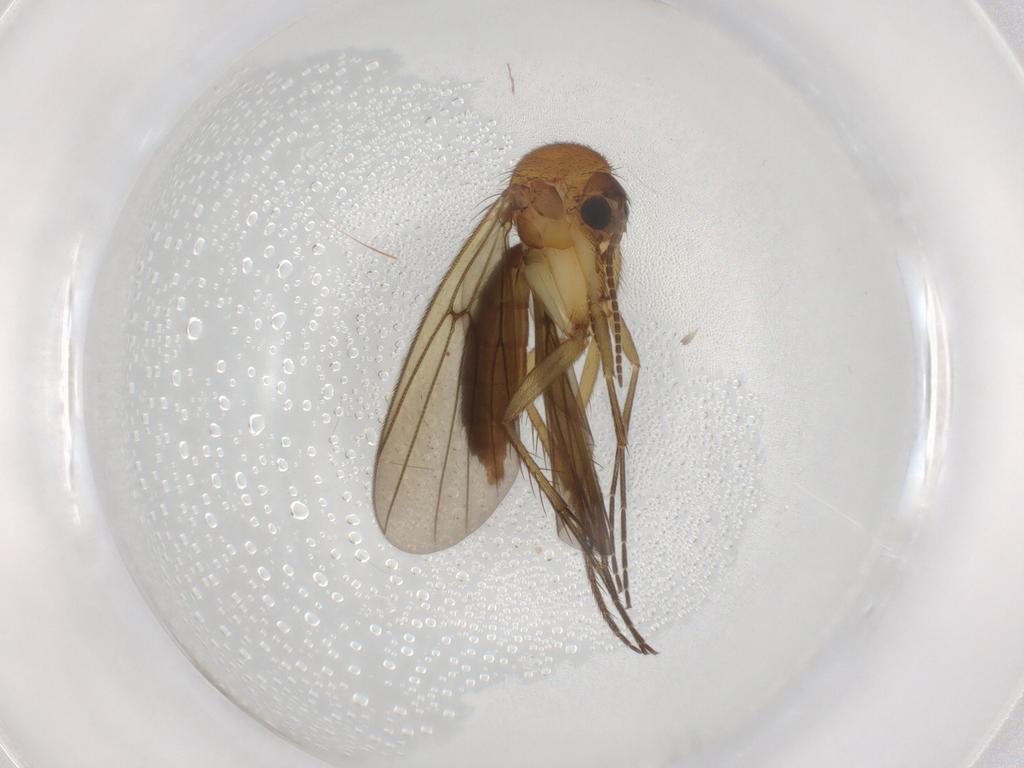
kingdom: Animalia
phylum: Arthropoda
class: Insecta
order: Diptera
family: Mycetophilidae
